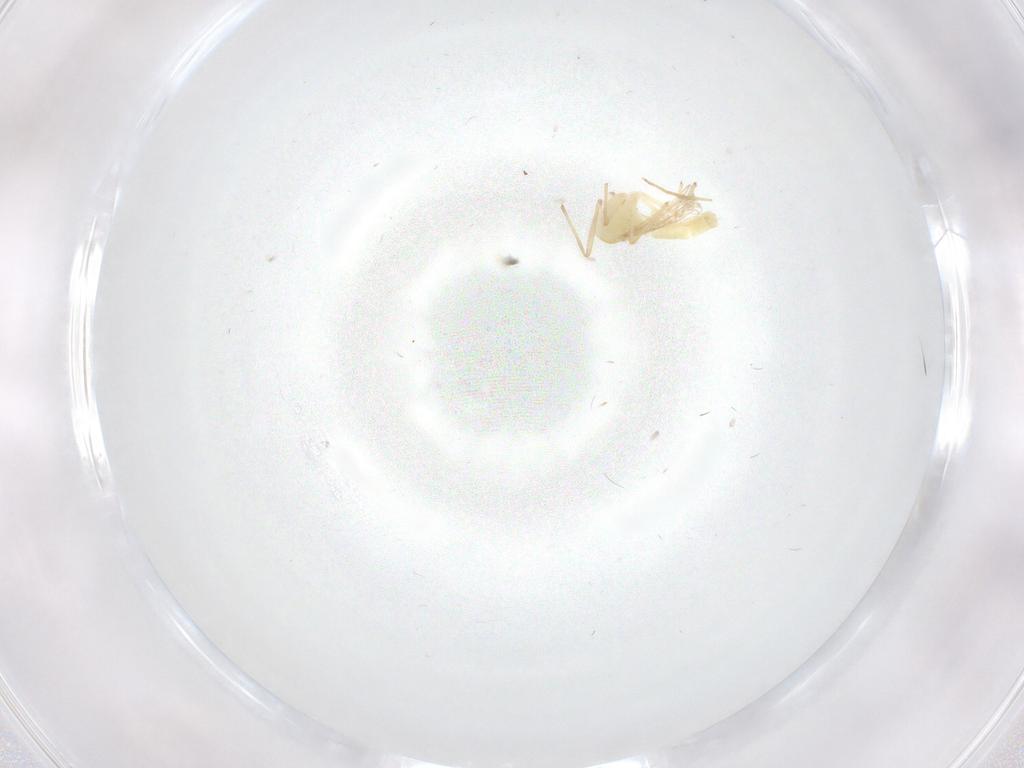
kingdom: Animalia
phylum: Arthropoda
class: Insecta
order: Diptera
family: Chironomidae
